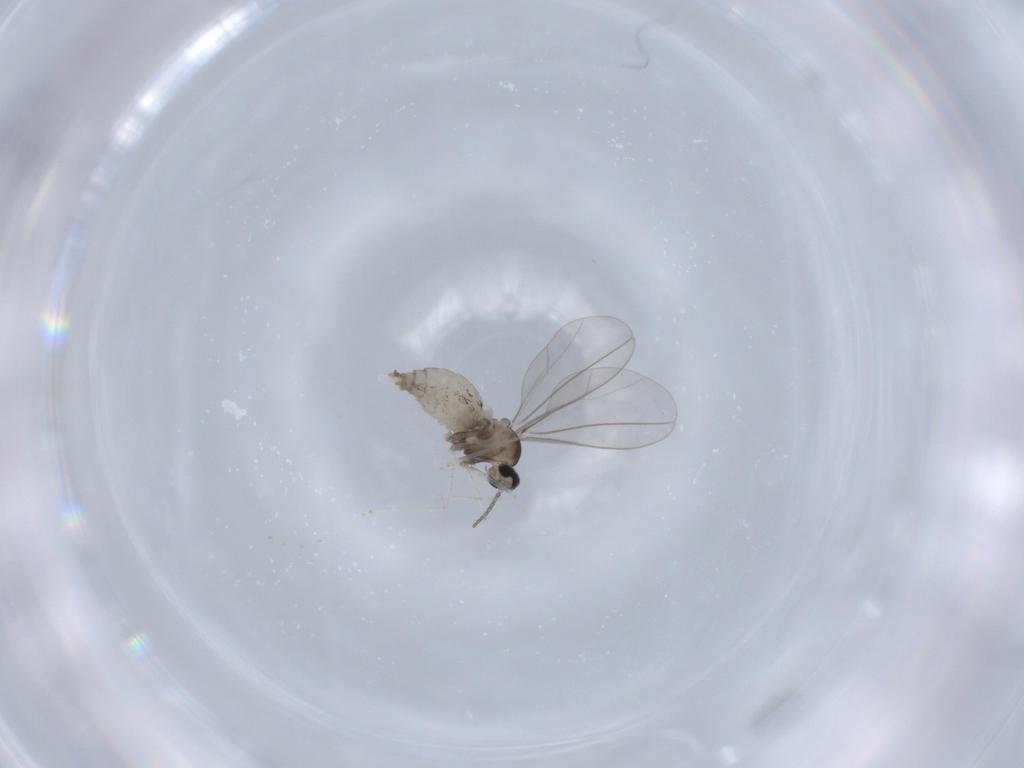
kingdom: Animalia
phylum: Arthropoda
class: Insecta
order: Diptera
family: Cecidomyiidae
